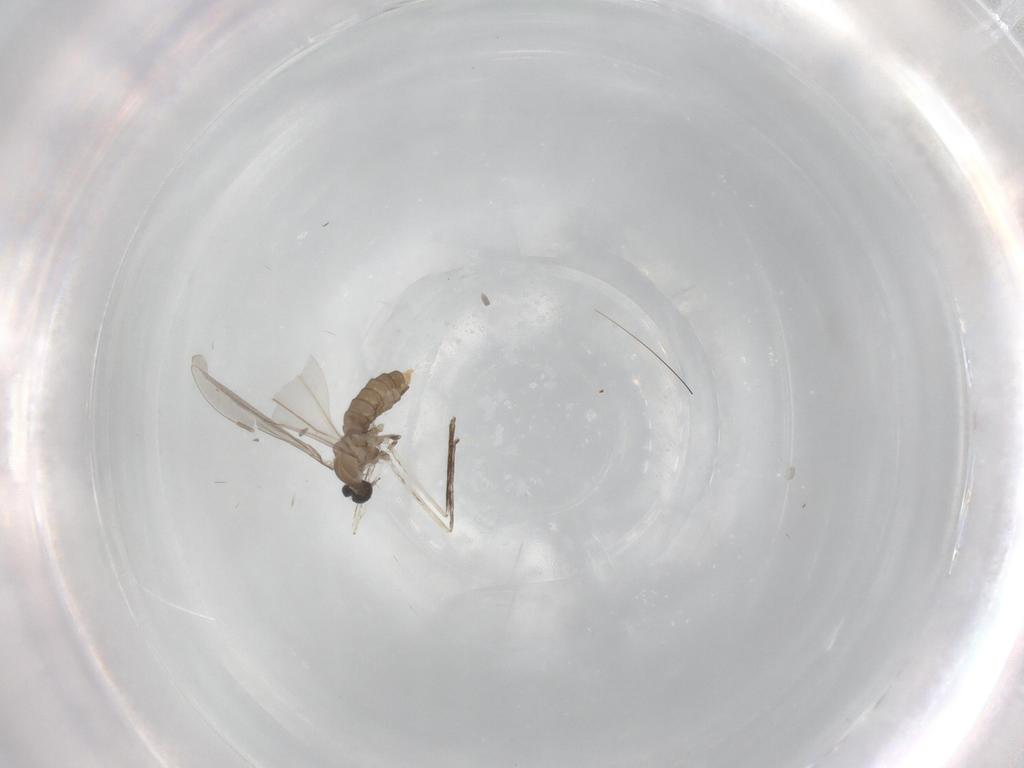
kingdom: Animalia
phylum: Arthropoda
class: Insecta
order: Diptera
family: Cecidomyiidae
